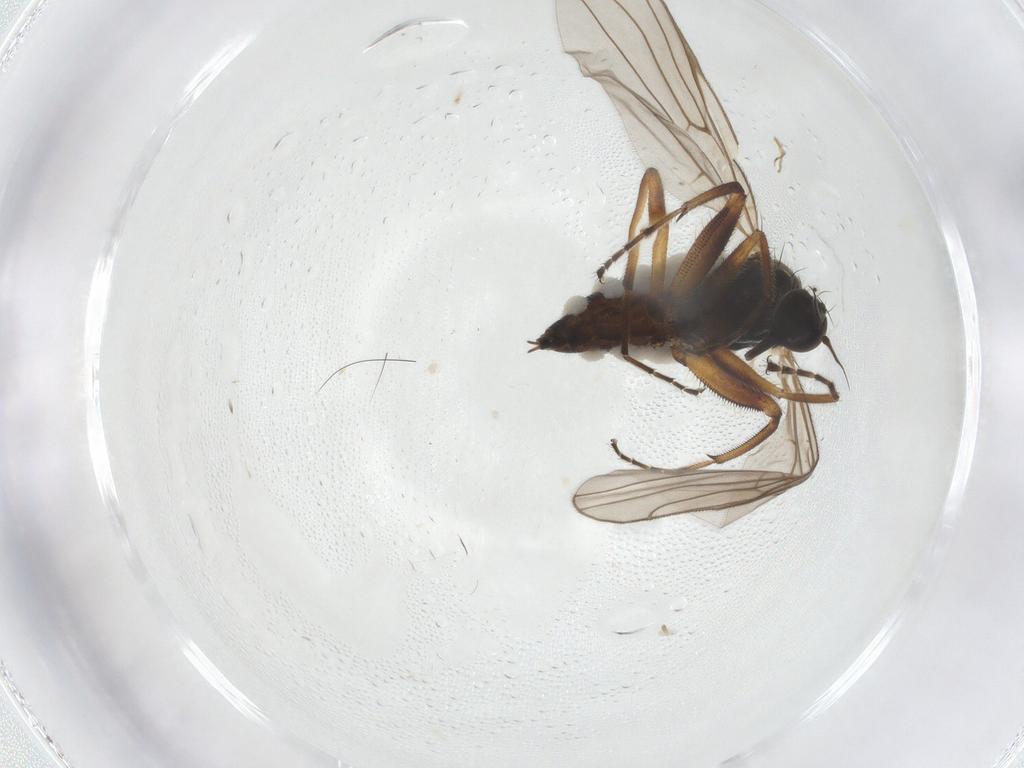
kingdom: Animalia
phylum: Arthropoda
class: Insecta
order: Diptera
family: Hybotidae
